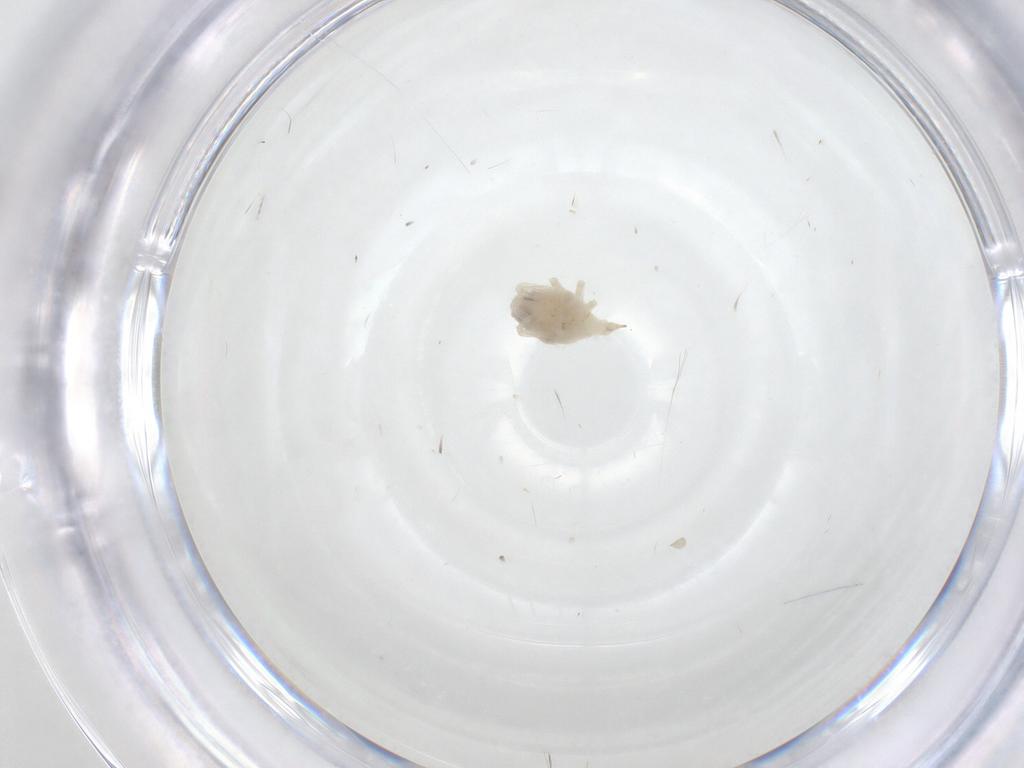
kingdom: Animalia
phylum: Arthropoda
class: Arachnida
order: Trombidiformes
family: Bdellidae
